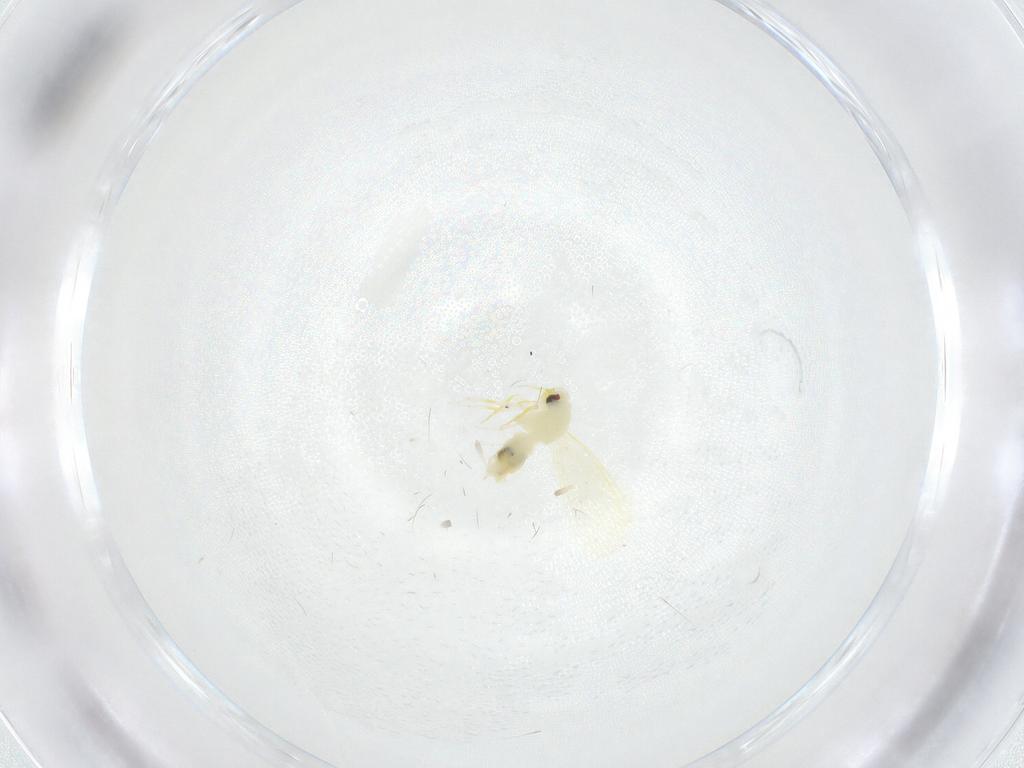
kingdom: Animalia
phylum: Arthropoda
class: Insecta
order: Hemiptera
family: Aleyrodidae
